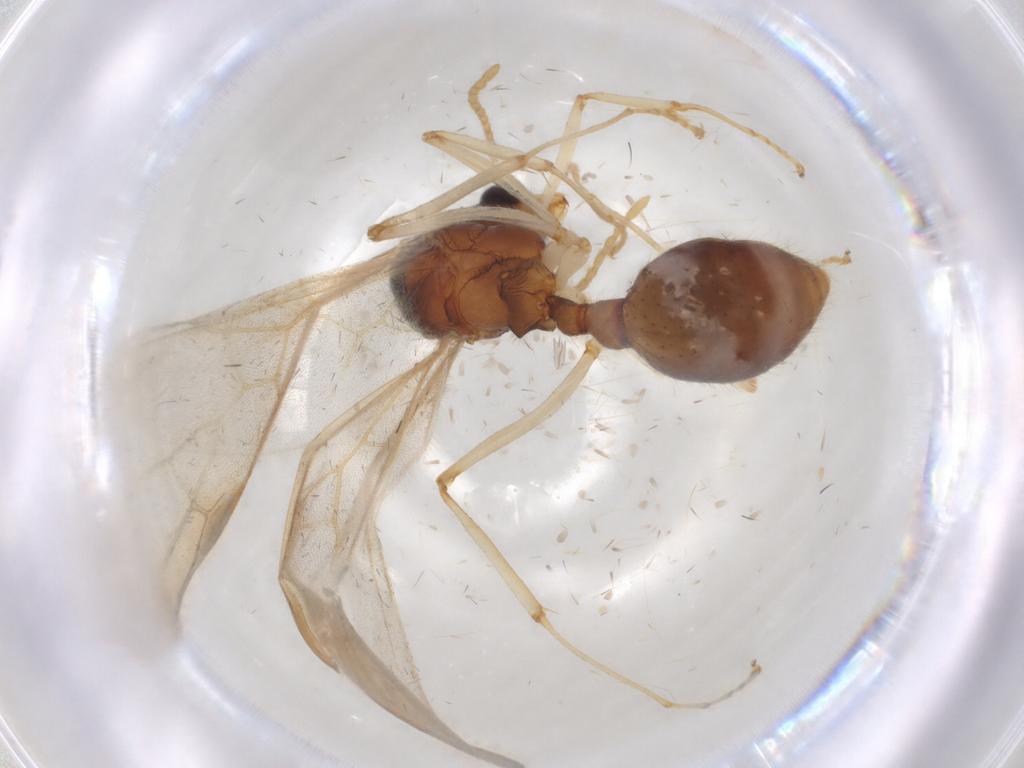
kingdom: Animalia
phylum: Arthropoda
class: Insecta
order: Hymenoptera
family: Formicidae
